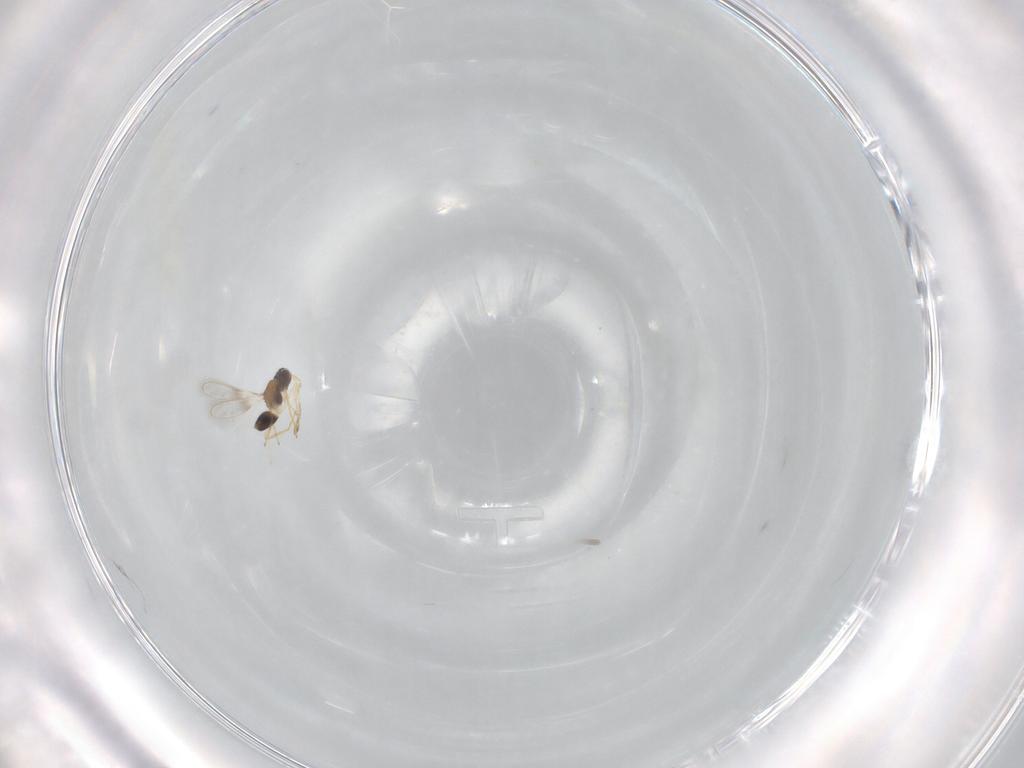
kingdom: Animalia
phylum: Arthropoda
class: Insecta
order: Hymenoptera
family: Mymaridae
